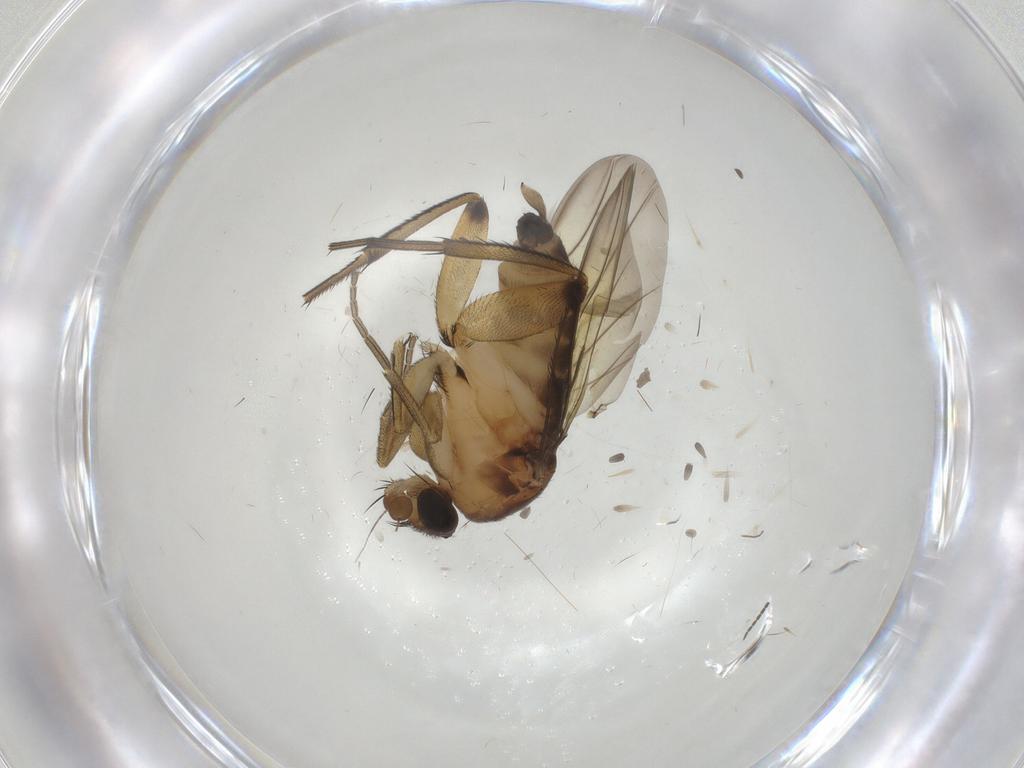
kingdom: Animalia
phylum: Arthropoda
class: Insecta
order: Diptera
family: Phoridae
